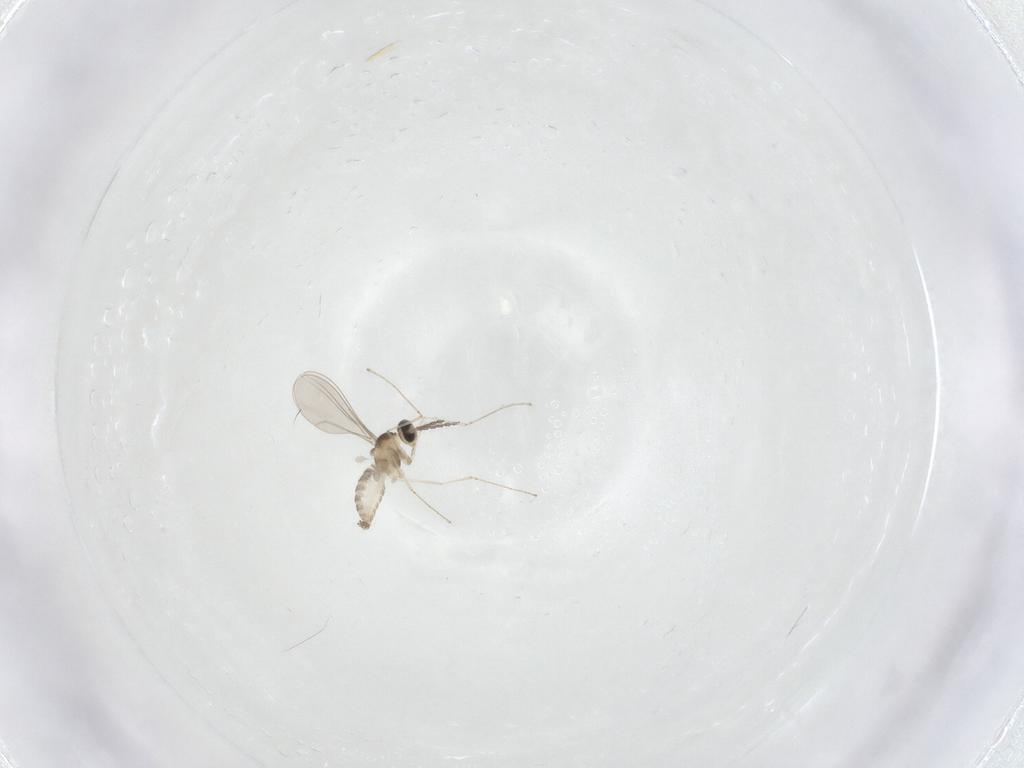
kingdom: Animalia
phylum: Arthropoda
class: Insecta
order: Diptera
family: Cecidomyiidae
